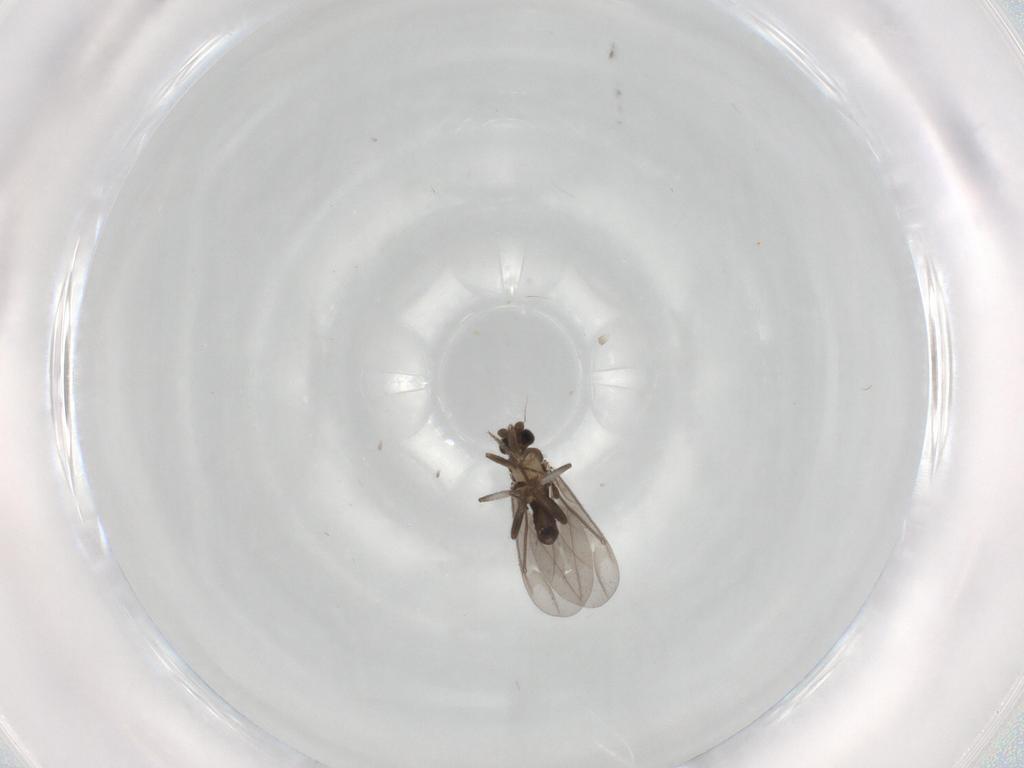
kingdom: Animalia
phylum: Arthropoda
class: Insecta
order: Diptera
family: Phoridae
